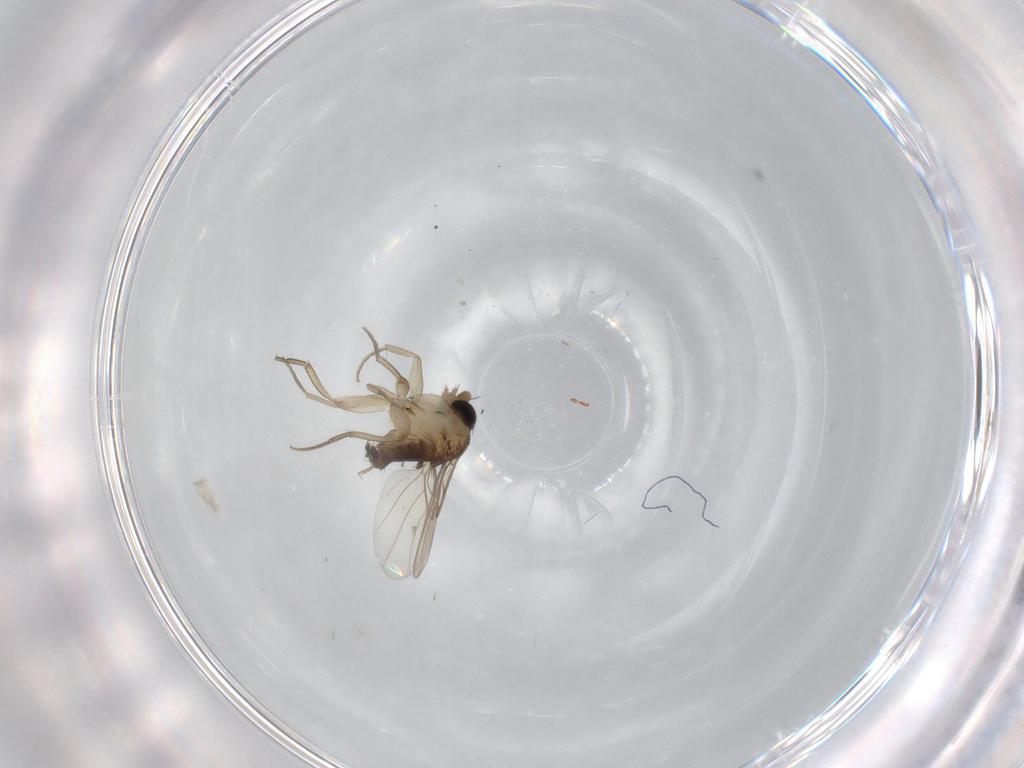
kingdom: Animalia
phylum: Arthropoda
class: Insecta
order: Diptera
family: Phoridae
